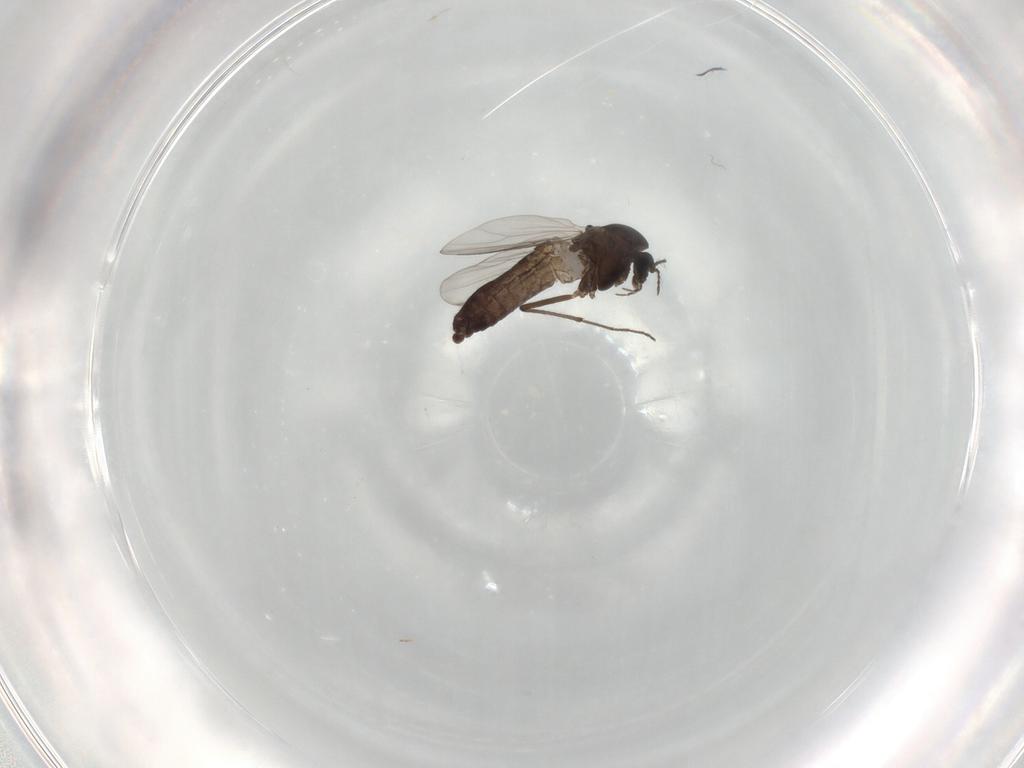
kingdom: Animalia
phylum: Arthropoda
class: Insecta
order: Diptera
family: Chironomidae
